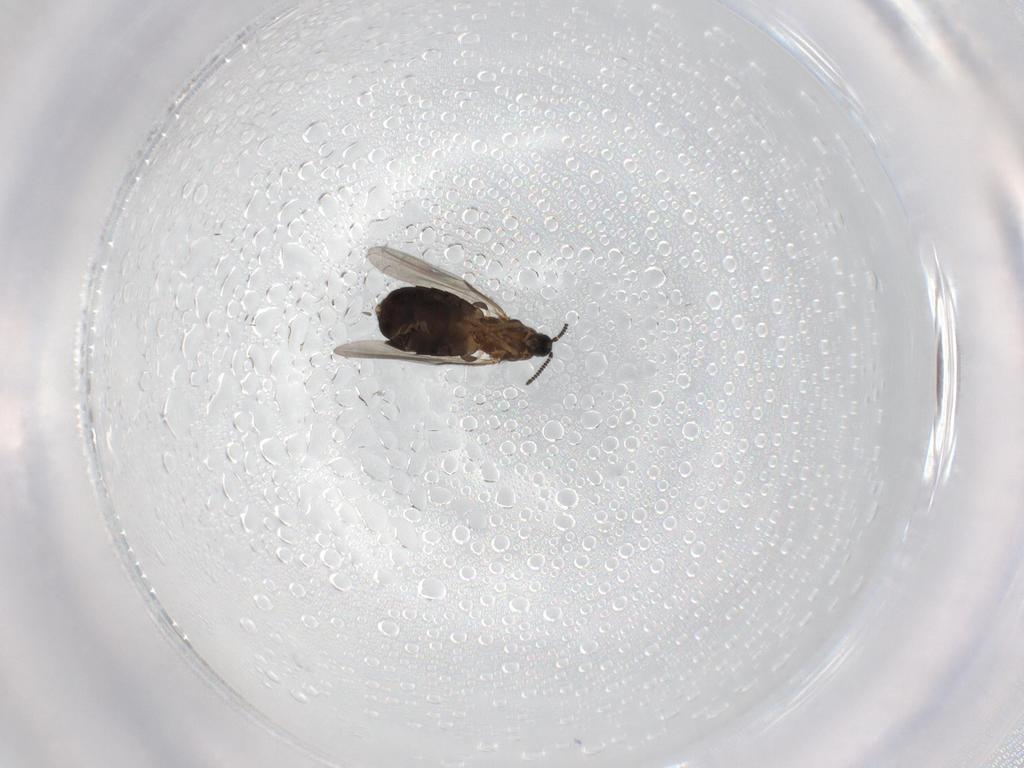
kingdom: Animalia
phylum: Arthropoda
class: Insecta
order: Diptera
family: Scatopsidae
